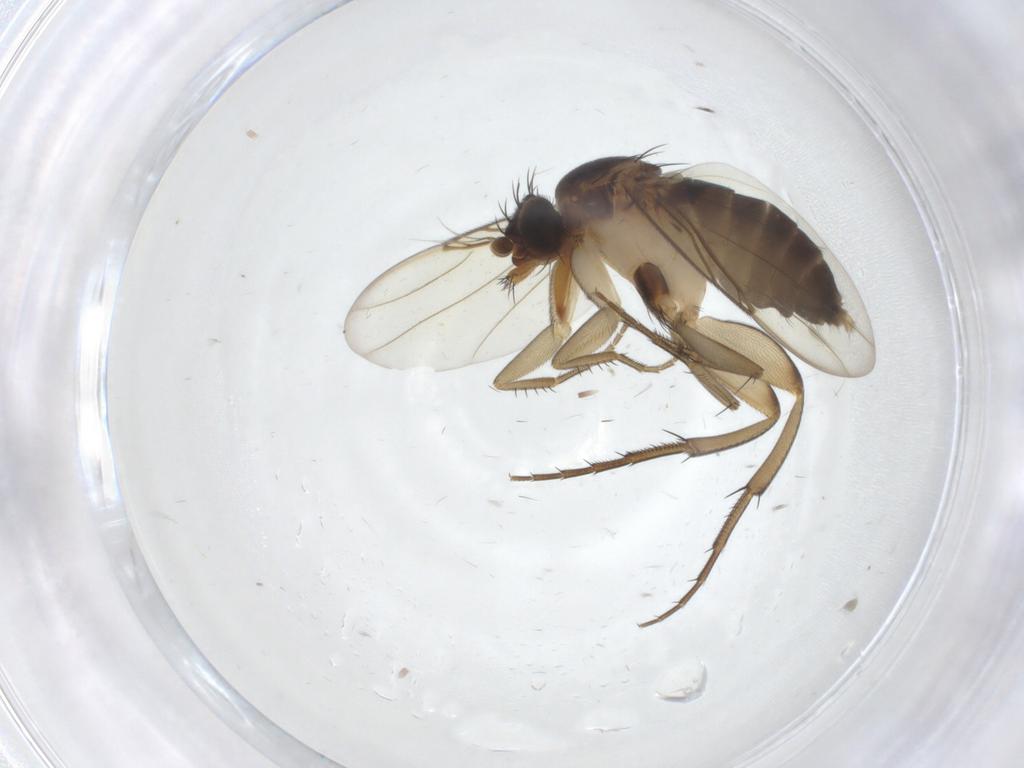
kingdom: Animalia
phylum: Arthropoda
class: Insecta
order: Diptera
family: Phoridae
